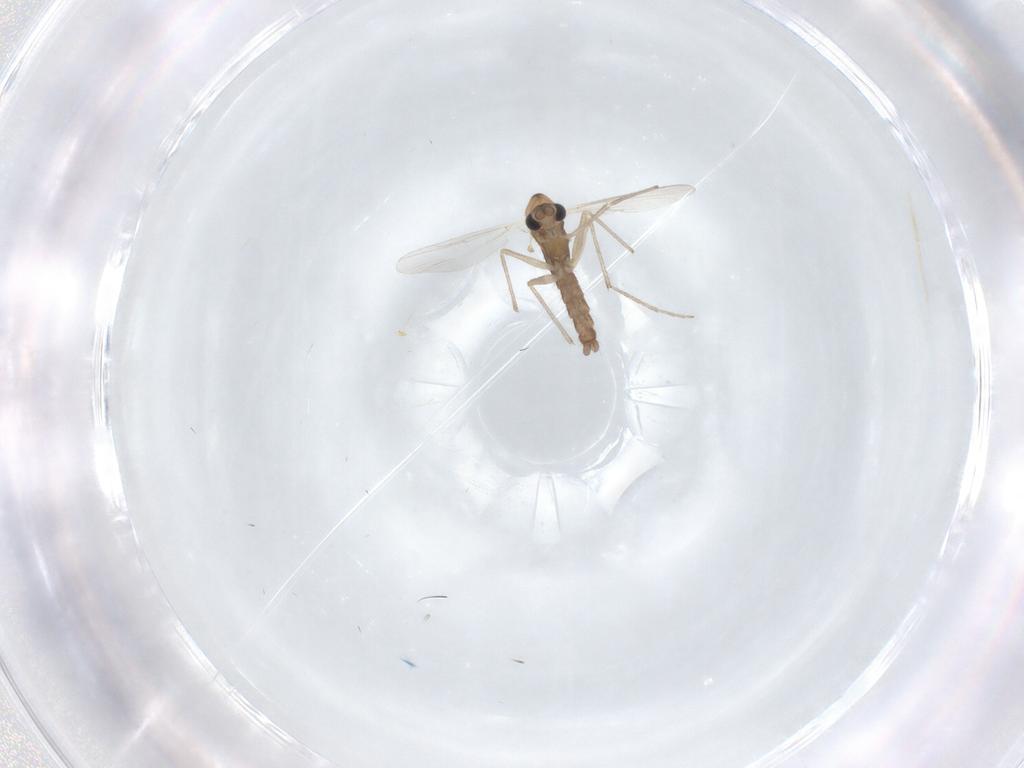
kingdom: Animalia
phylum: Arthropoda
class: Insecta
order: Diptera
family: Chironomidae
